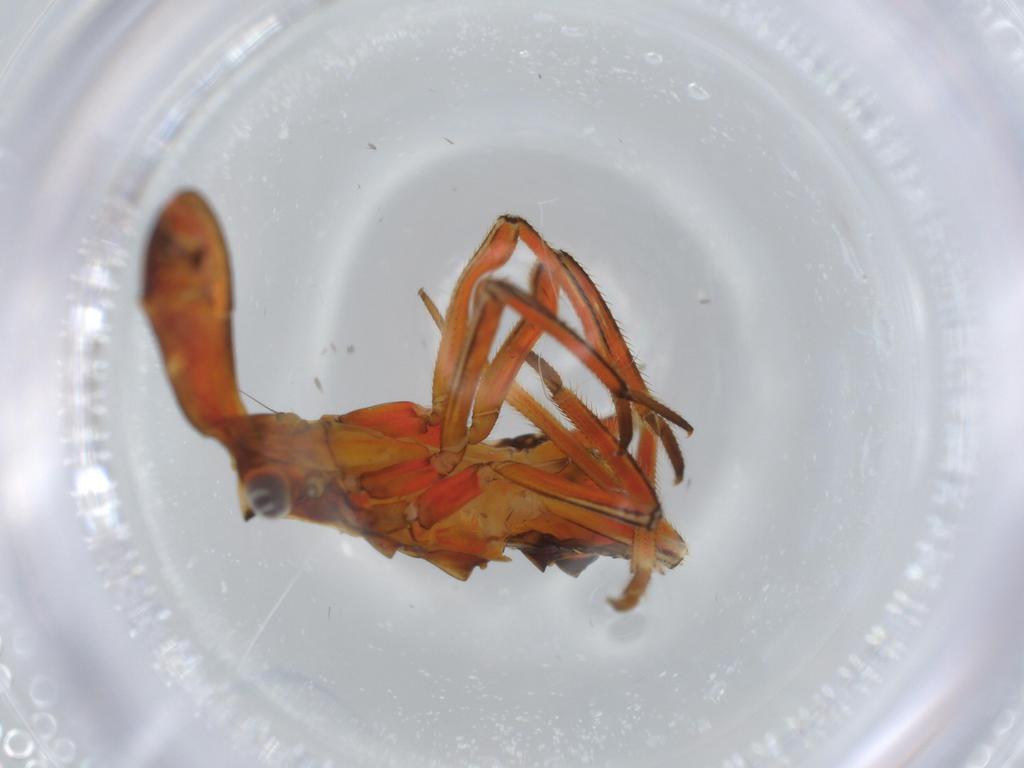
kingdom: Animalia
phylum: Arthropoda
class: Insecta
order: Hemiptera
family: Fulgoridae
